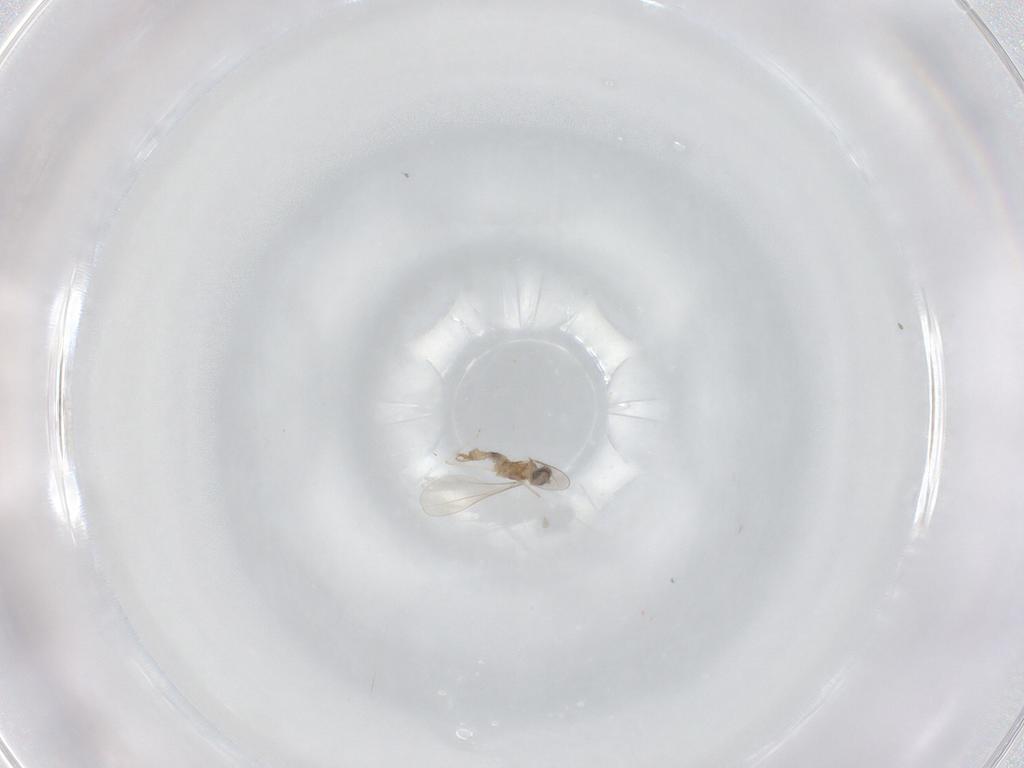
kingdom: Animalia
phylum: Arthropoda
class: Insecta
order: Diptera
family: Cecidomyiidae
